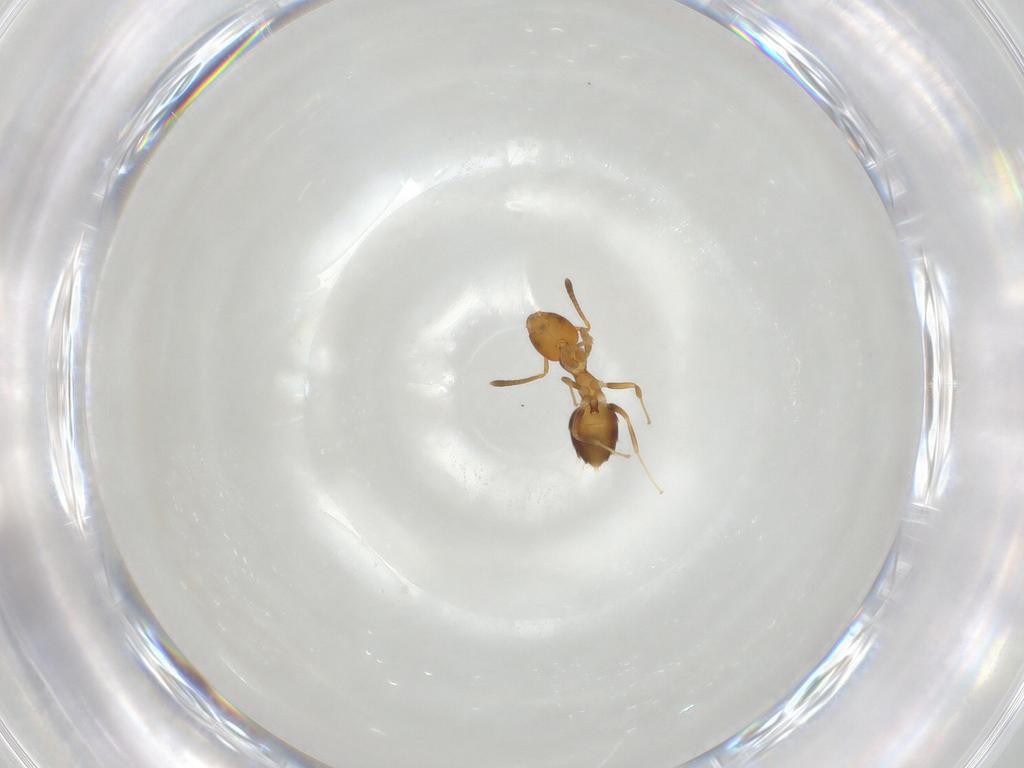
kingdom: Animalia
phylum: Arthropoda
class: Insecta
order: Hymenoptera
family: Formicidae
